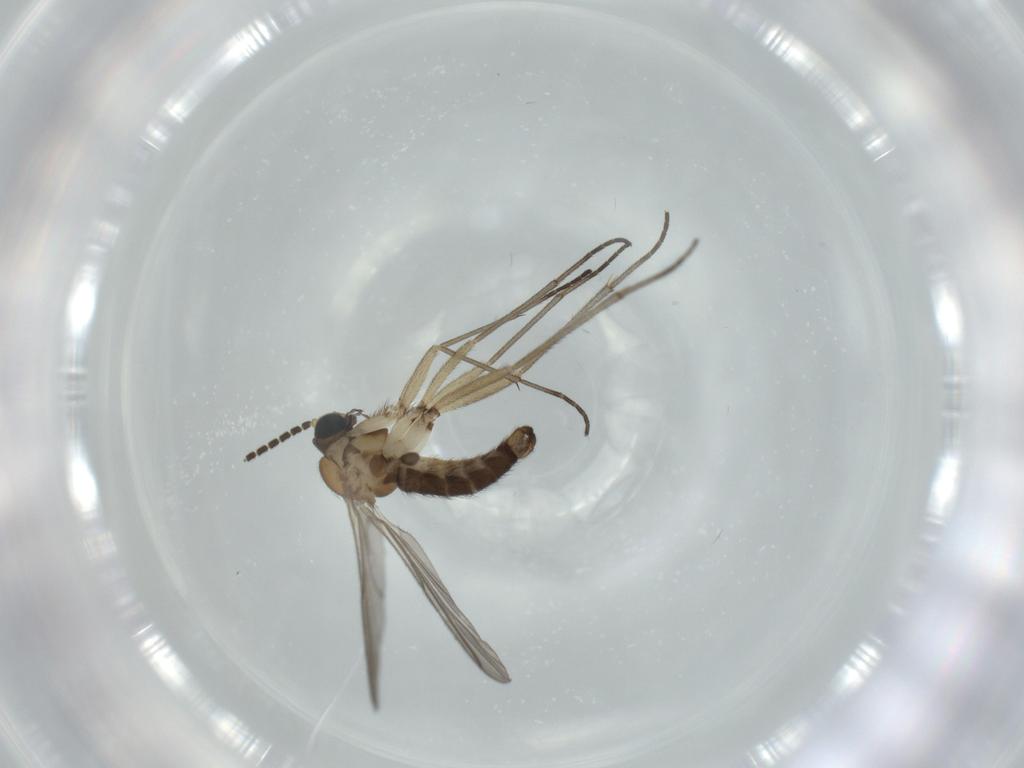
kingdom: Animalia
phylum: Arthropoda
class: Insecta
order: Diptera
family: Sciaridae
